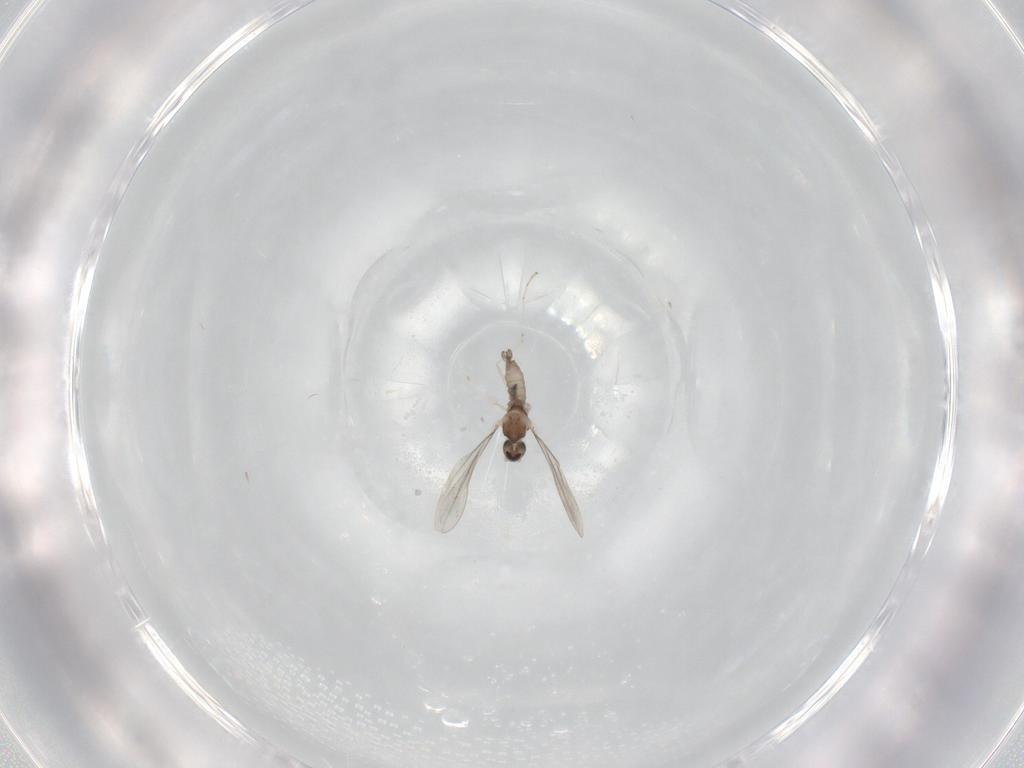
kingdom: Animalia
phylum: Arthropoda
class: Insecta
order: Diptera
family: Cecidomyiidae
